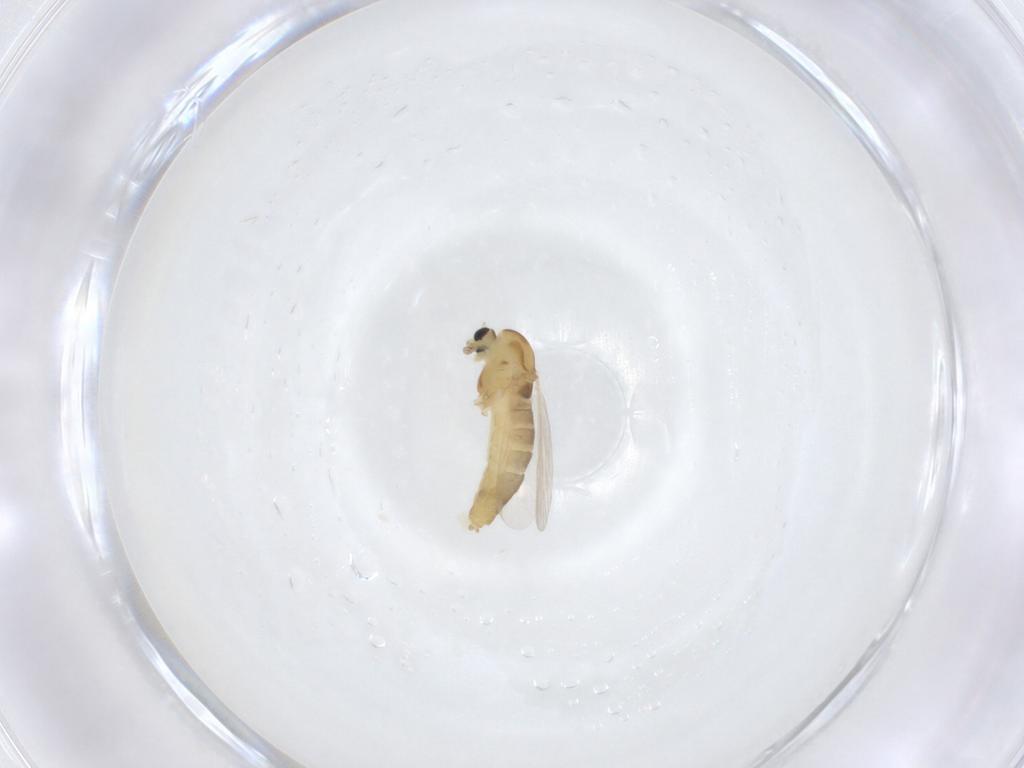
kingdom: Animalia
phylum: Arthropoda
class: Insecta
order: Diptera
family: Chironomidae
